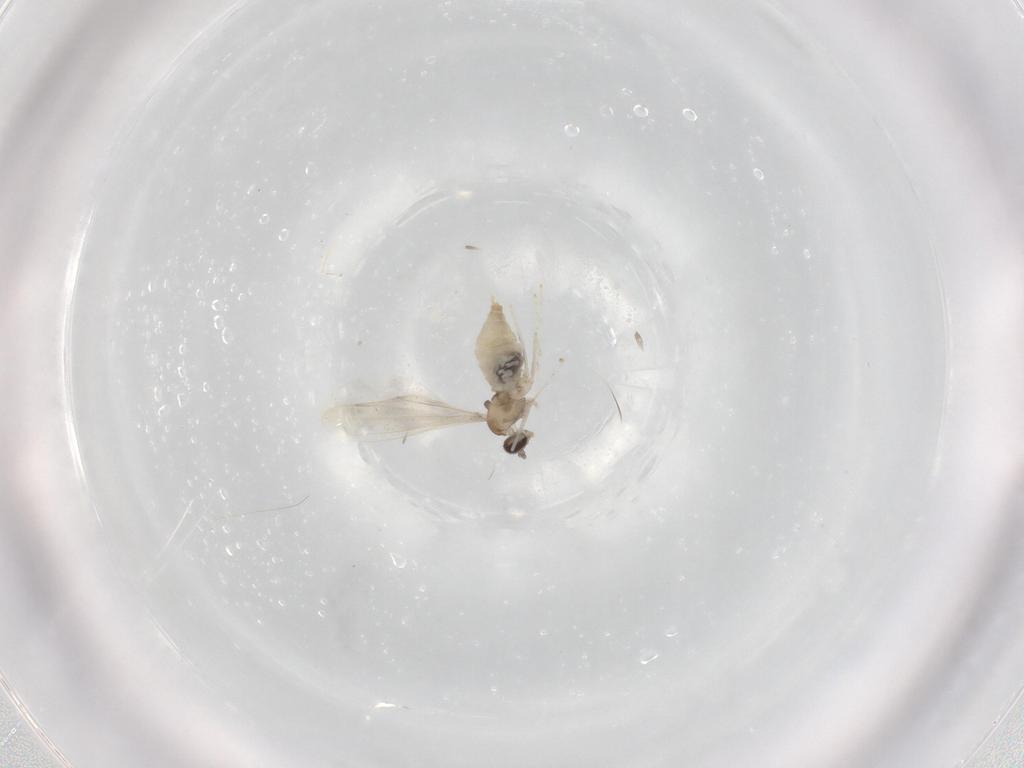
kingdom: Animalia
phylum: Arthropoda
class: Insecta
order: Diptera
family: Cecidomyiidae
